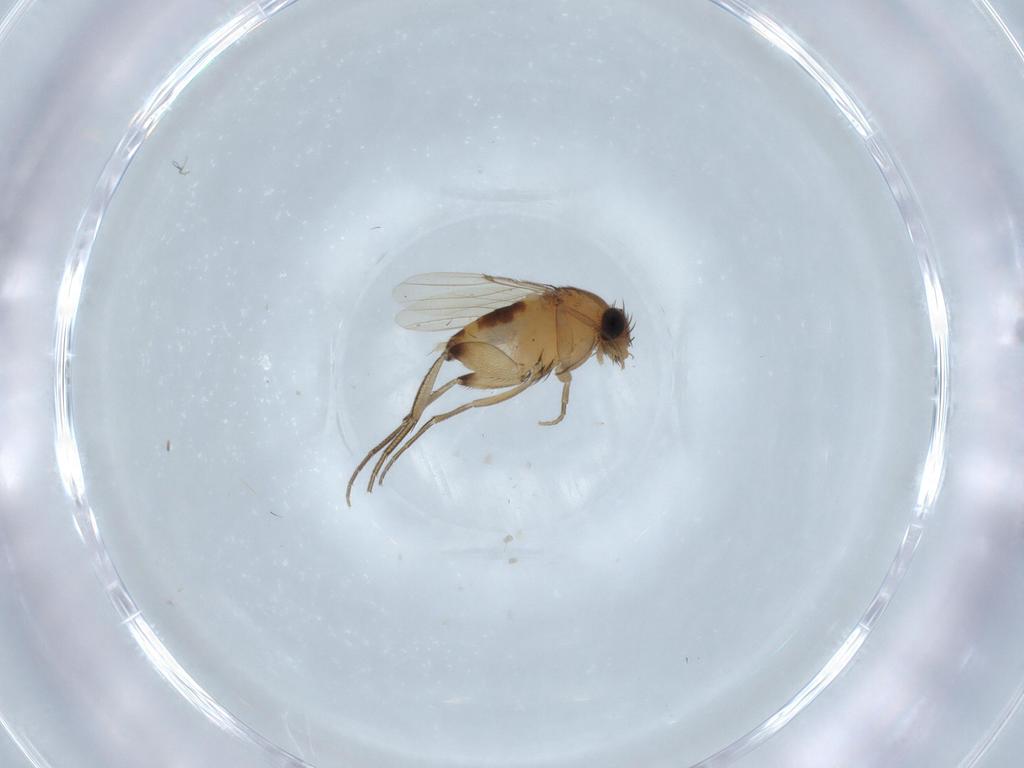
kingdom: Animalia
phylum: Arthropoda
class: Insecta
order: Diptera
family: Phoridae
